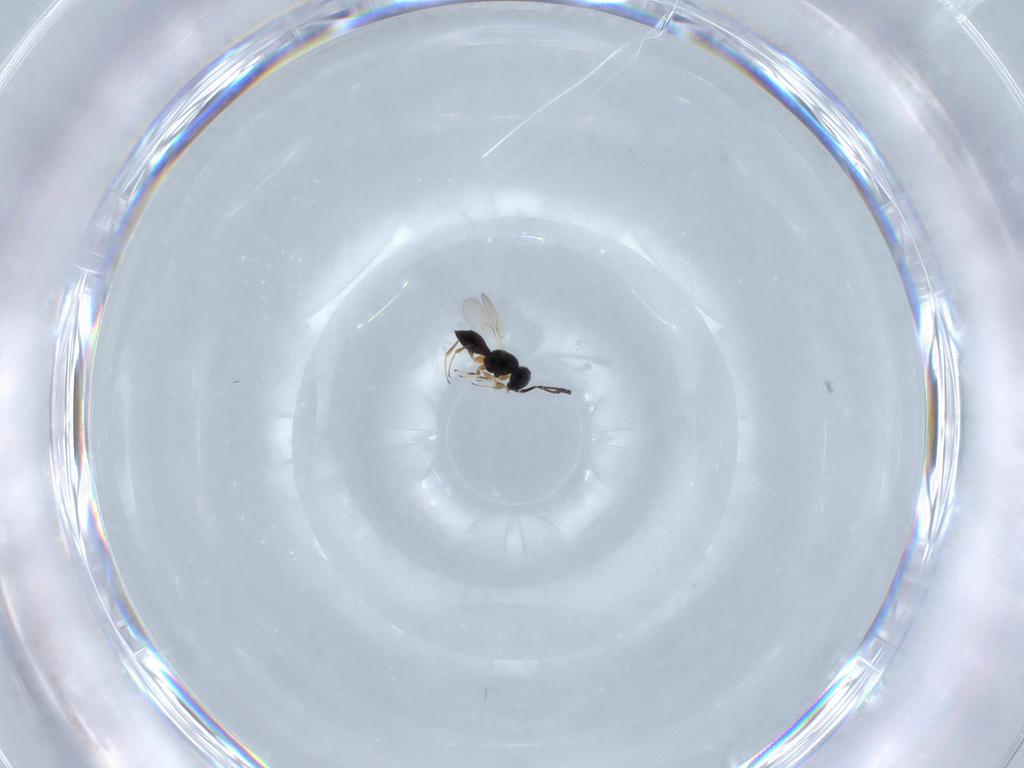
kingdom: Animalia
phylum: Arthropoda
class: Insecta
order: Hymenoptera
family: Scelionidae
